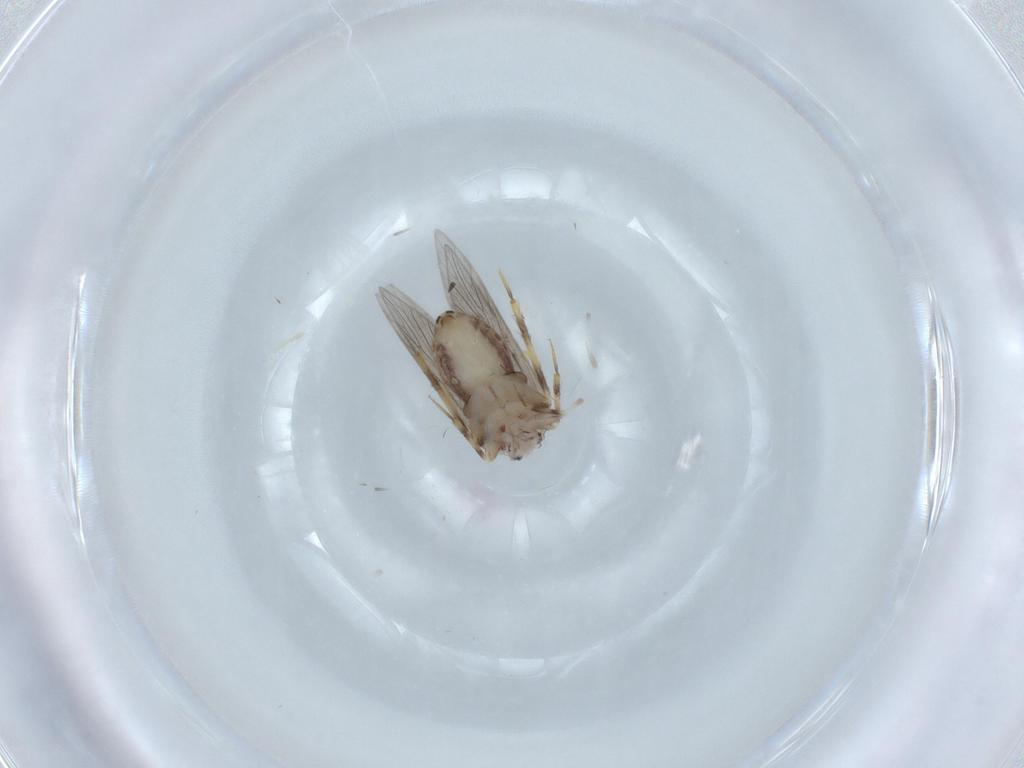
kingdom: Animalia
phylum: Arthropoda
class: Insecta
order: Psocodea
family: Lepidopsocidae
